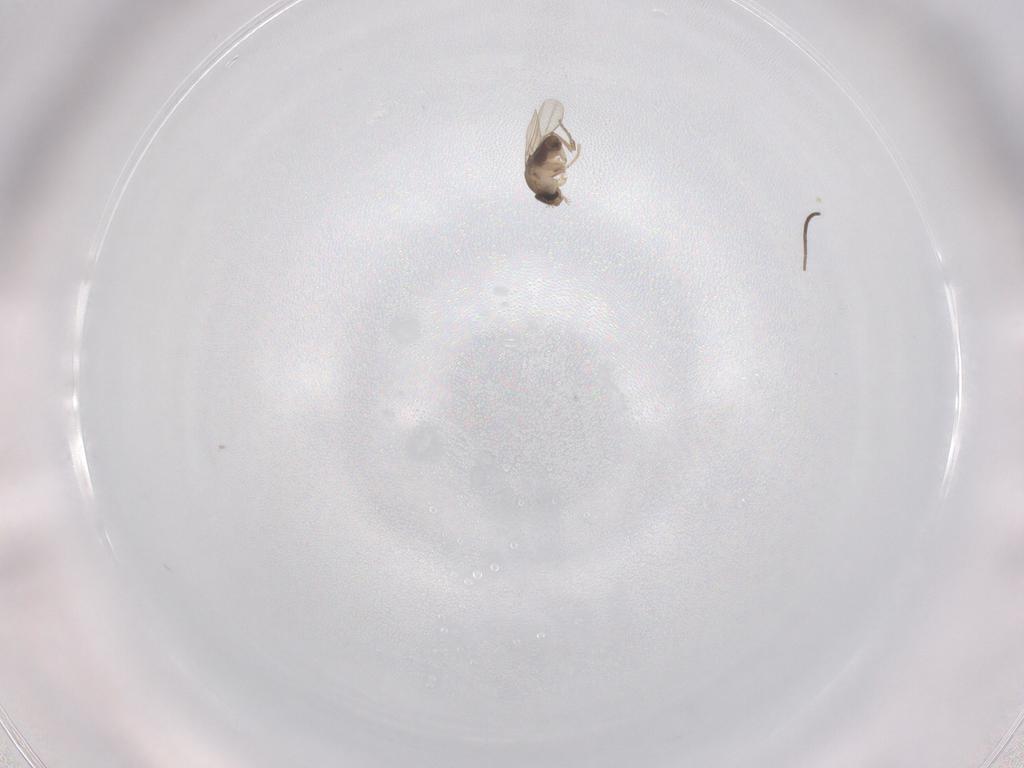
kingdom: Animalia
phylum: Arthropoda
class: Insecta
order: Diptera
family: Phoridae
